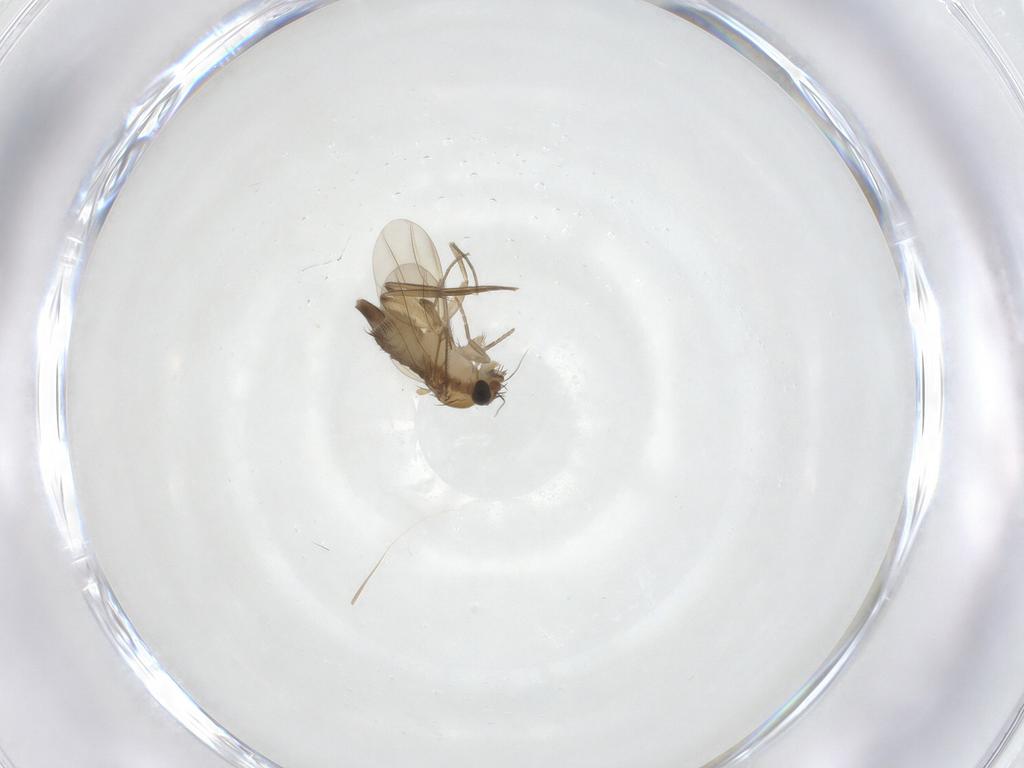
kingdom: Animalia
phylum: Arthropoda
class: Insecta
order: Diptera
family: Phoridae
